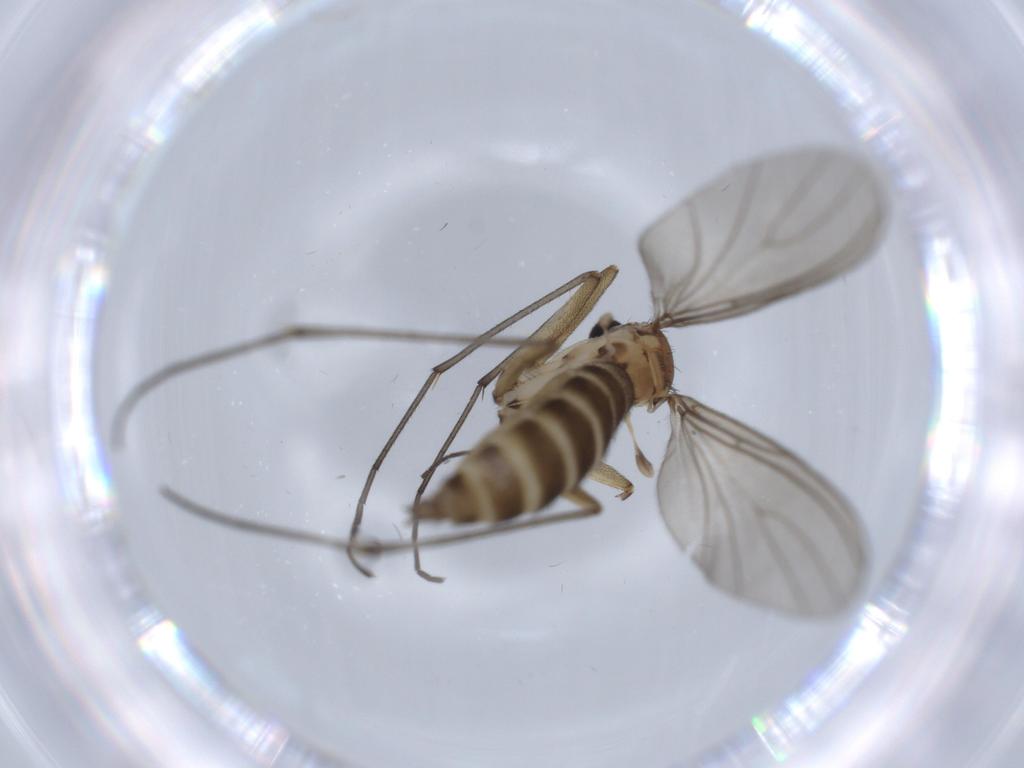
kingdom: Animalia
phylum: Arthropoda
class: Insecta
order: Diptera
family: Sciaridae
